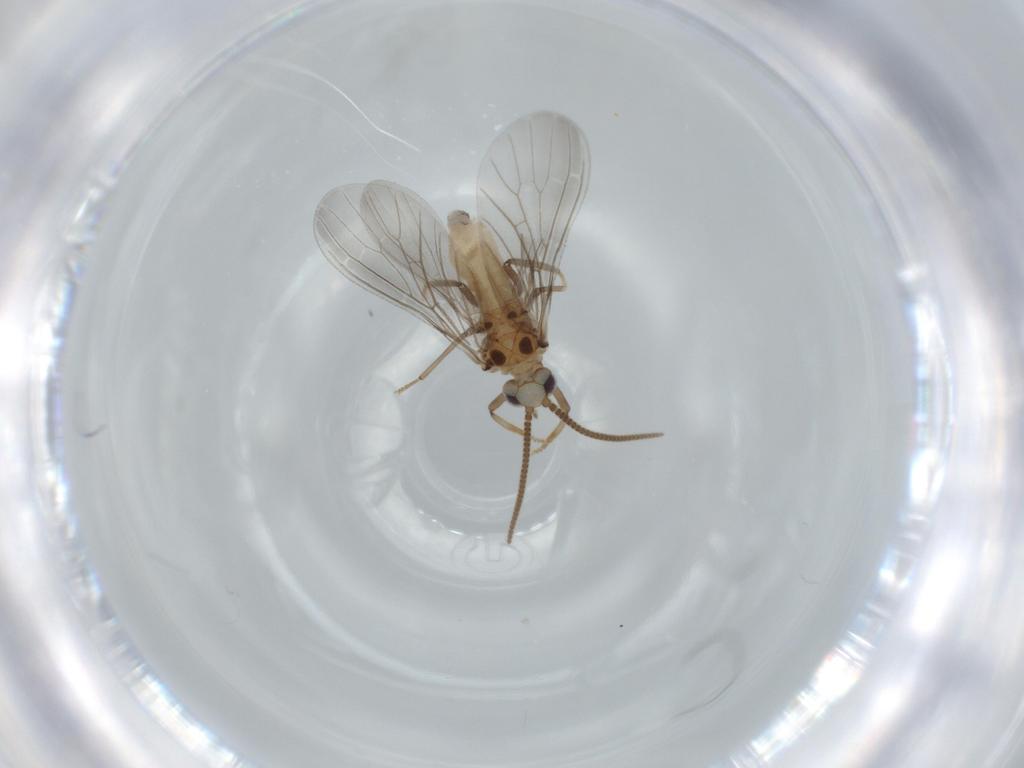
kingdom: Animalia
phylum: Arthropoda
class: Insecta
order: Neuroptera
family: Coniopterygidae
